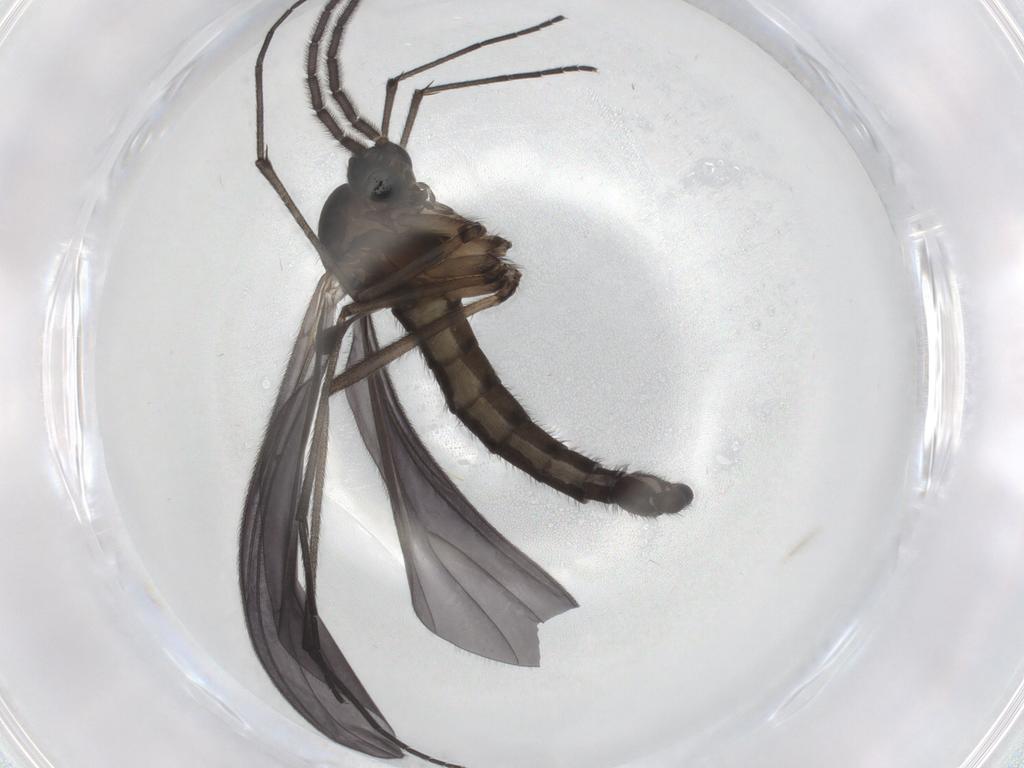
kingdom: Animalia
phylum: Arthropoda
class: Insecta
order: Diptera
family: Sciaridae
